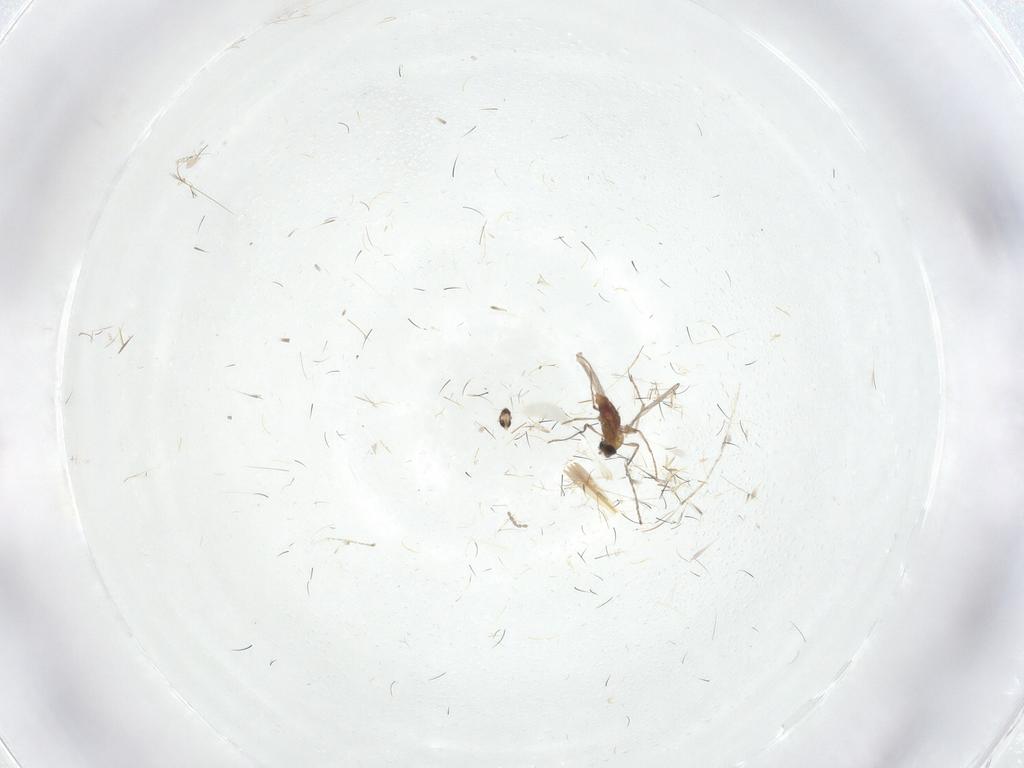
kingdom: Animalia
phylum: Arthropoda
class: Insecta
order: Diptera
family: Cecidomyiidae
